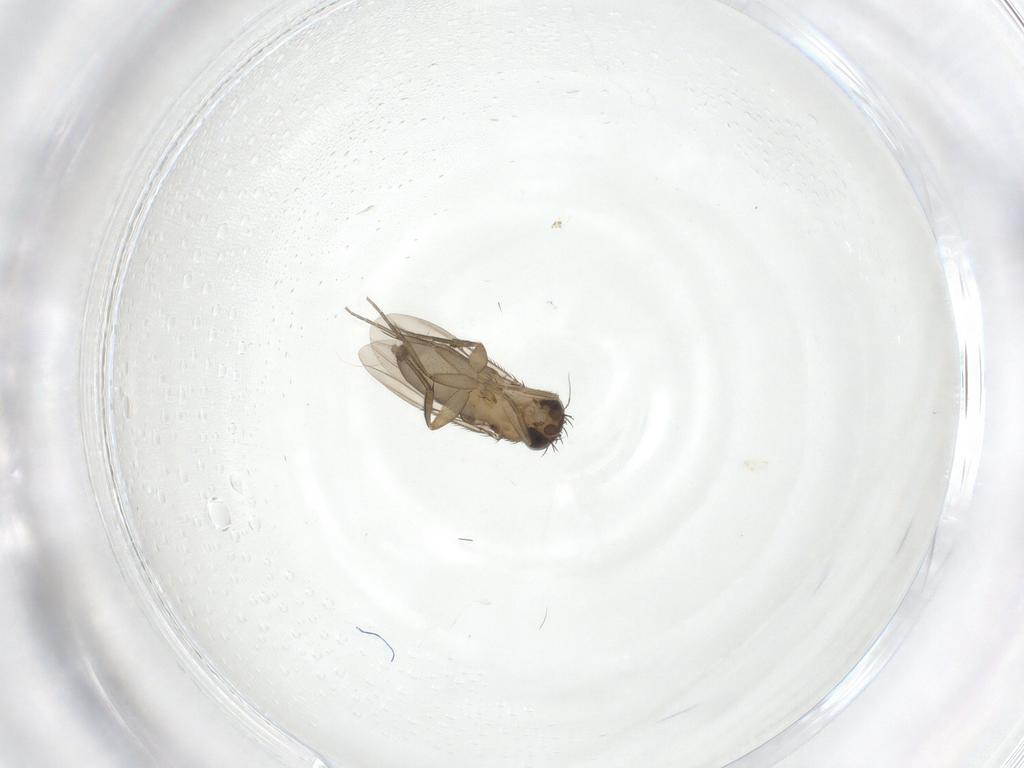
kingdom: Animalia
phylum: Arthropoda
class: Insecta
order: Diptera
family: Phoridae
